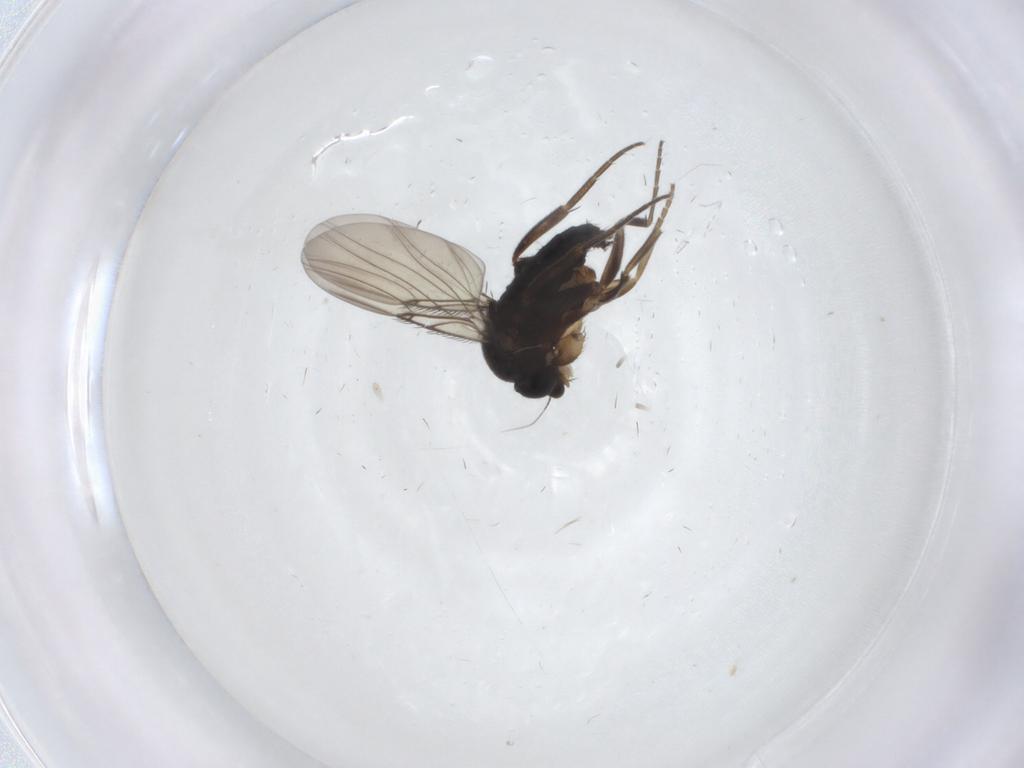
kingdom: Animalia
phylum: Arthropoda
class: Insecta
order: Diptera
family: Phoridae
